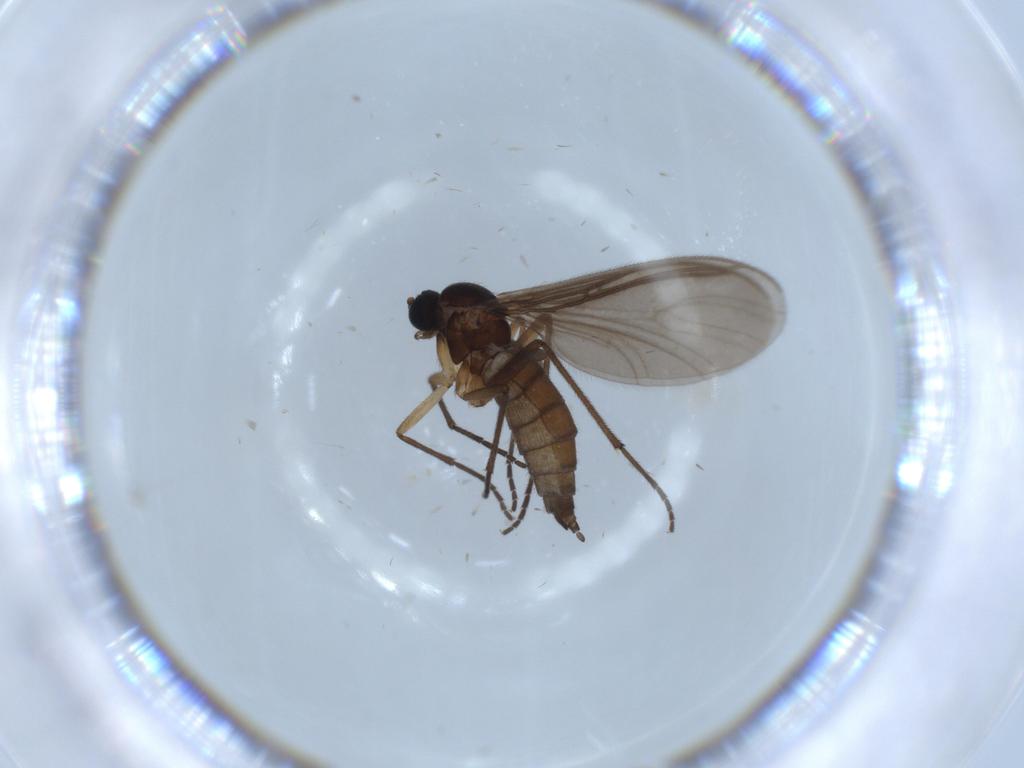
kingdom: Animalia
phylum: Arthropoda
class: Insecta
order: Diptera
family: Sciaridae
